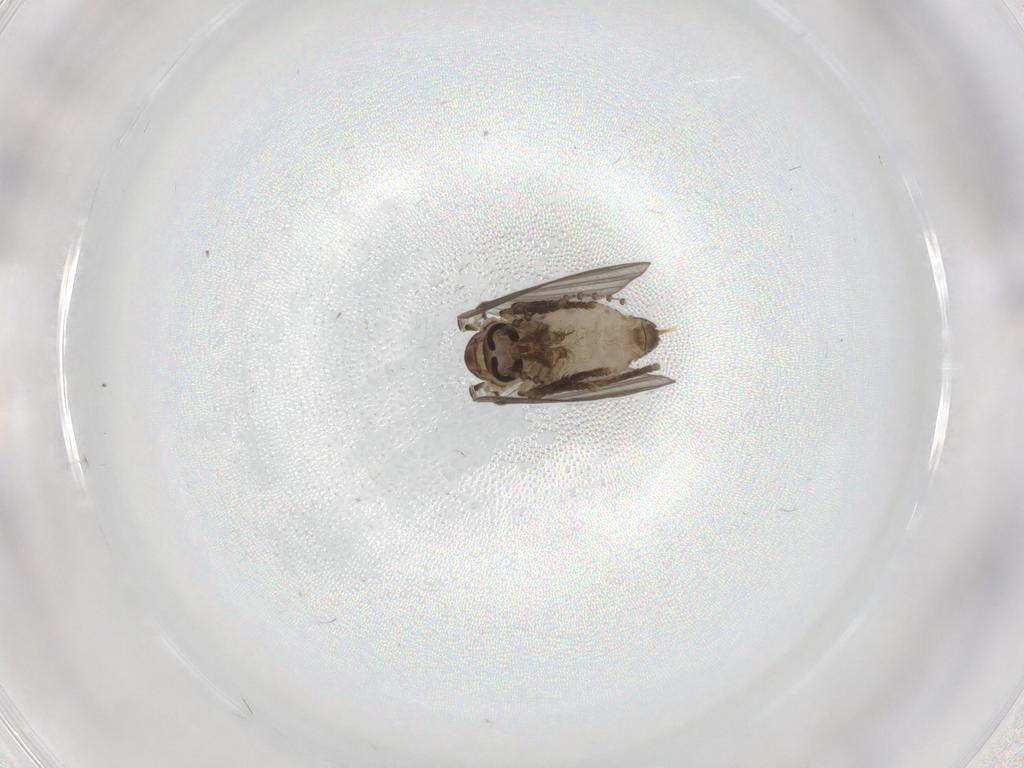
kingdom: Animalia
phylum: Arthropoda
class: Insecta
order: Diptera
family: Psychodidae
